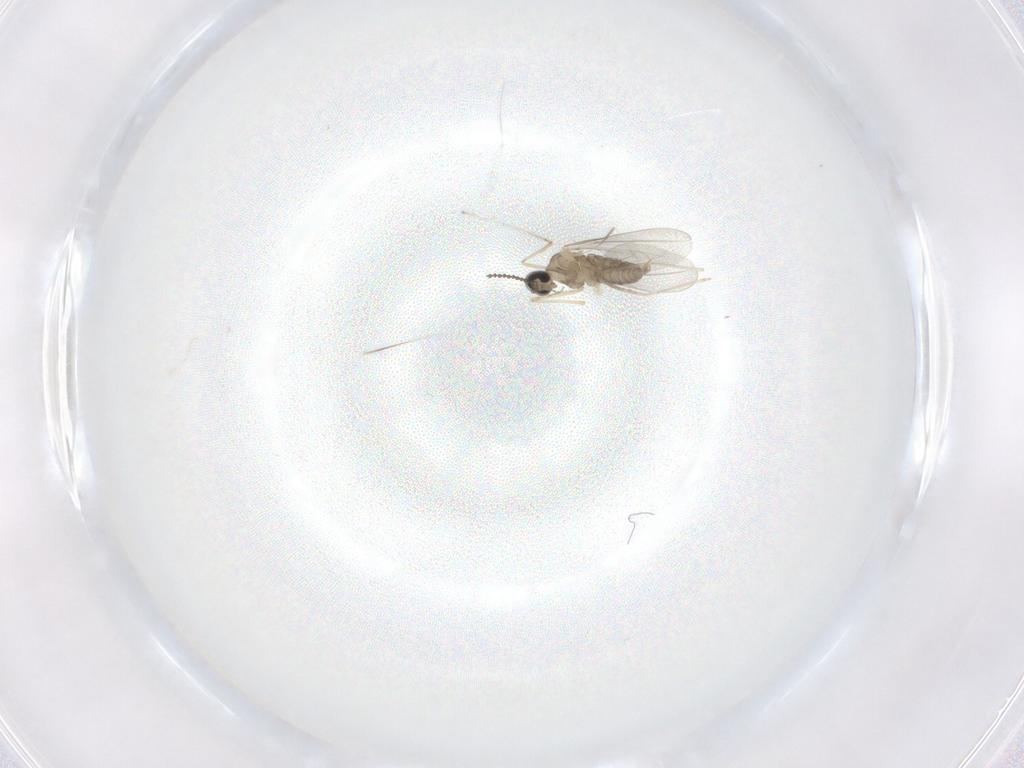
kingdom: Animalia
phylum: Arthropoda
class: Insecta
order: Diptera
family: Cecidomyiidae
